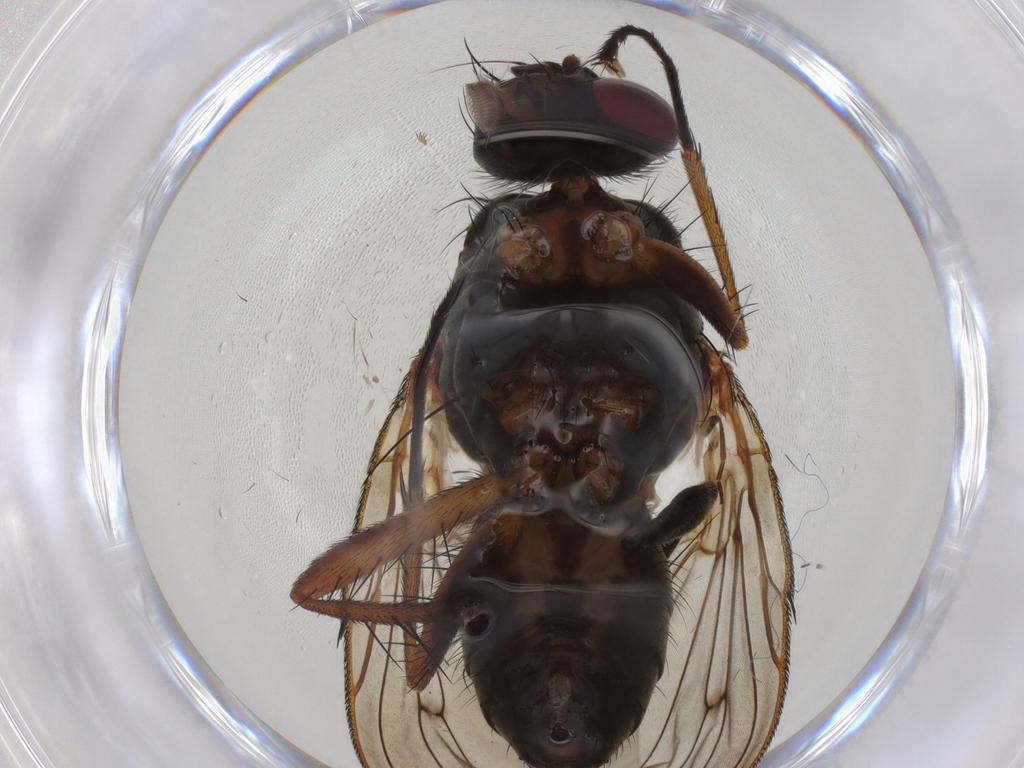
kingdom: Animalia
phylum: Arthropoda
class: Insecta
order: Diptera
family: Anthomyiidae
